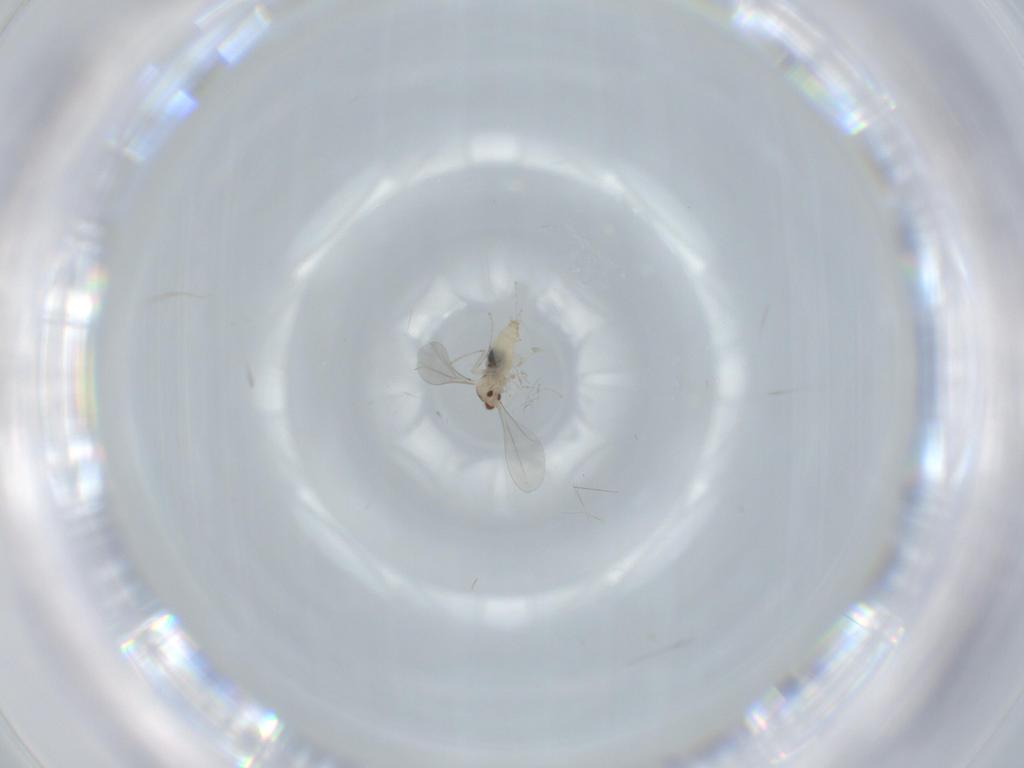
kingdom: Animalia
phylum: Arthropoda
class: Insecta
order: Diptera
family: Cecidomyiidae
